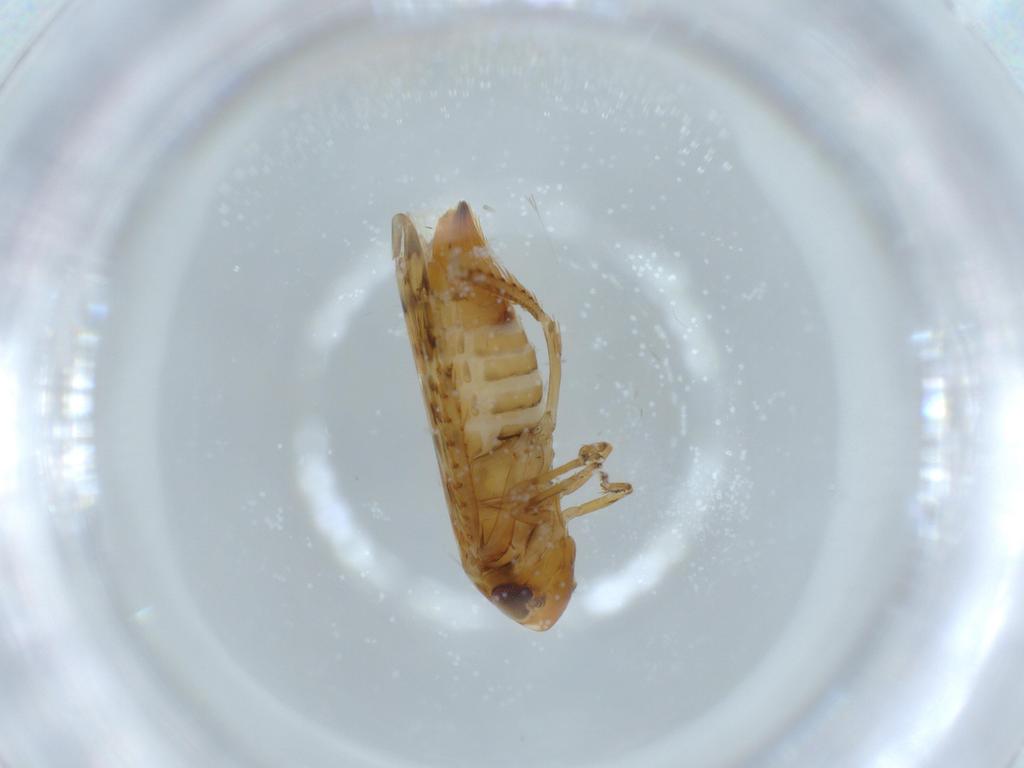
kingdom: Animalia
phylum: Arthropoda
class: Insecta
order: Hemiptera
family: Cicadellidae
